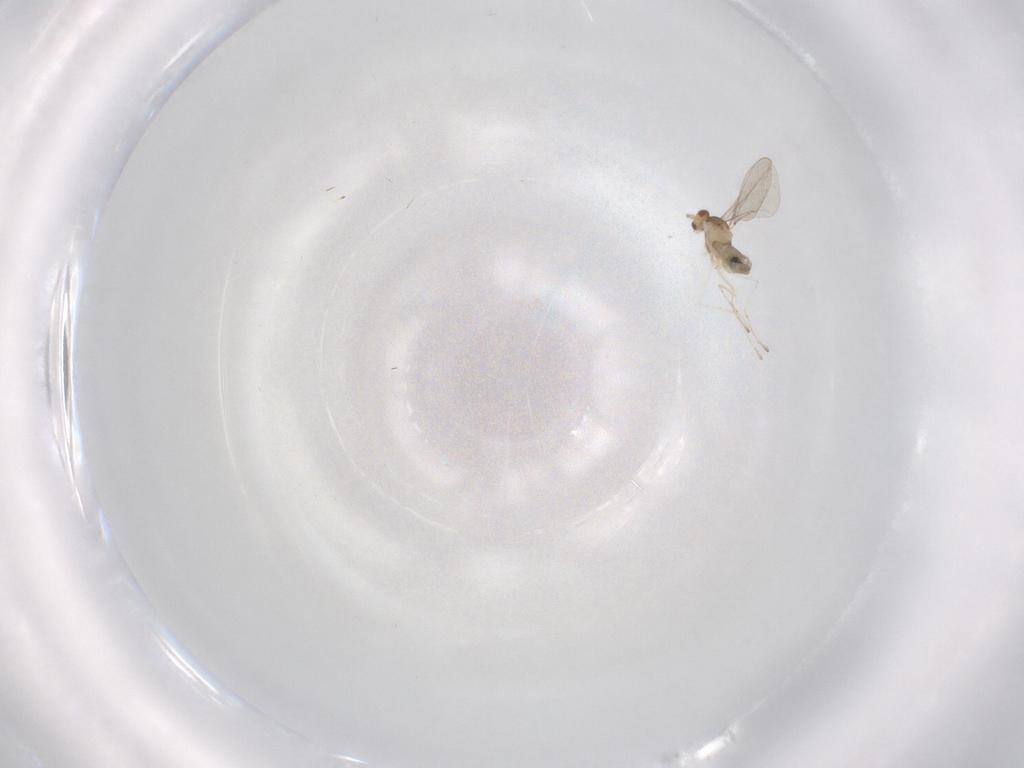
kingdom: Animalia
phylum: Arthropoda
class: Insecta
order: Diptera
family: Cecidomyiidae
